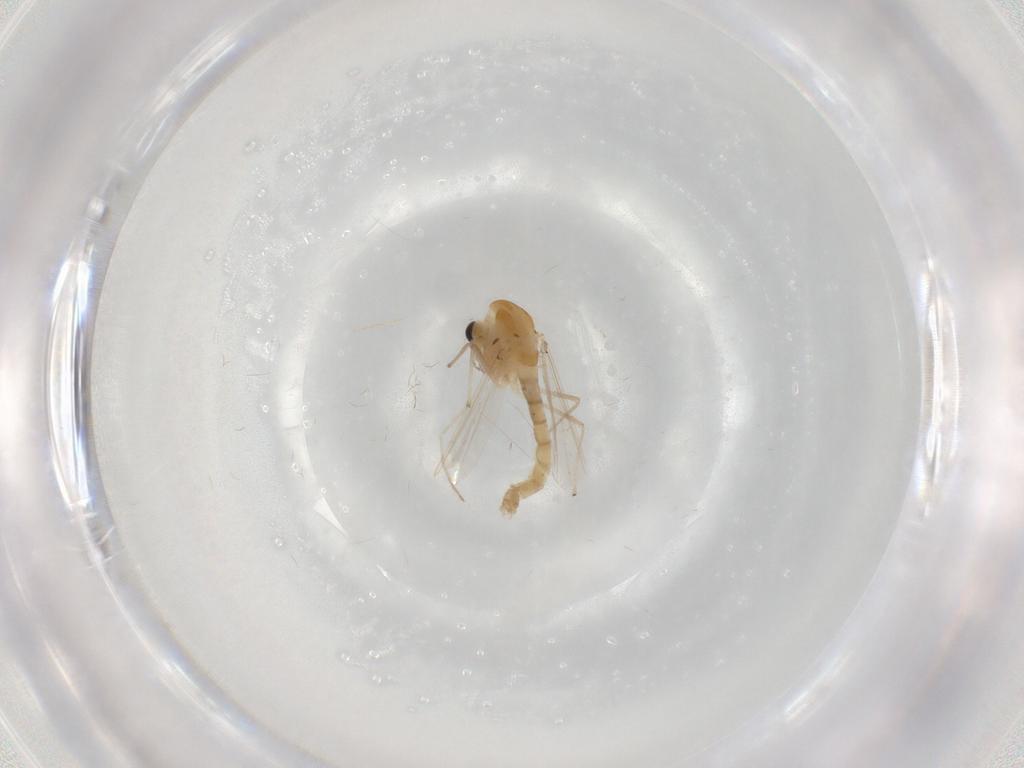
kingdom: Animalia
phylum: Arthropoda
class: Insecta
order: Diptera
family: Chironomidae
